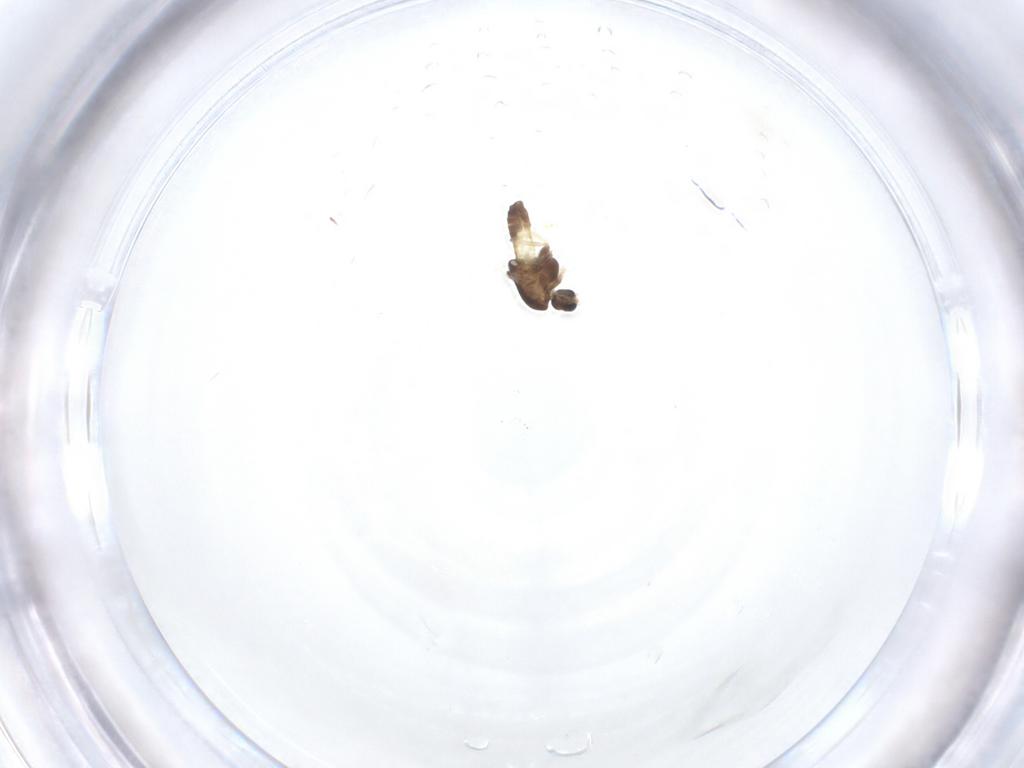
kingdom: Animalia
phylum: Arthropoda
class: Insecta
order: Diptera
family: Chironomidae
